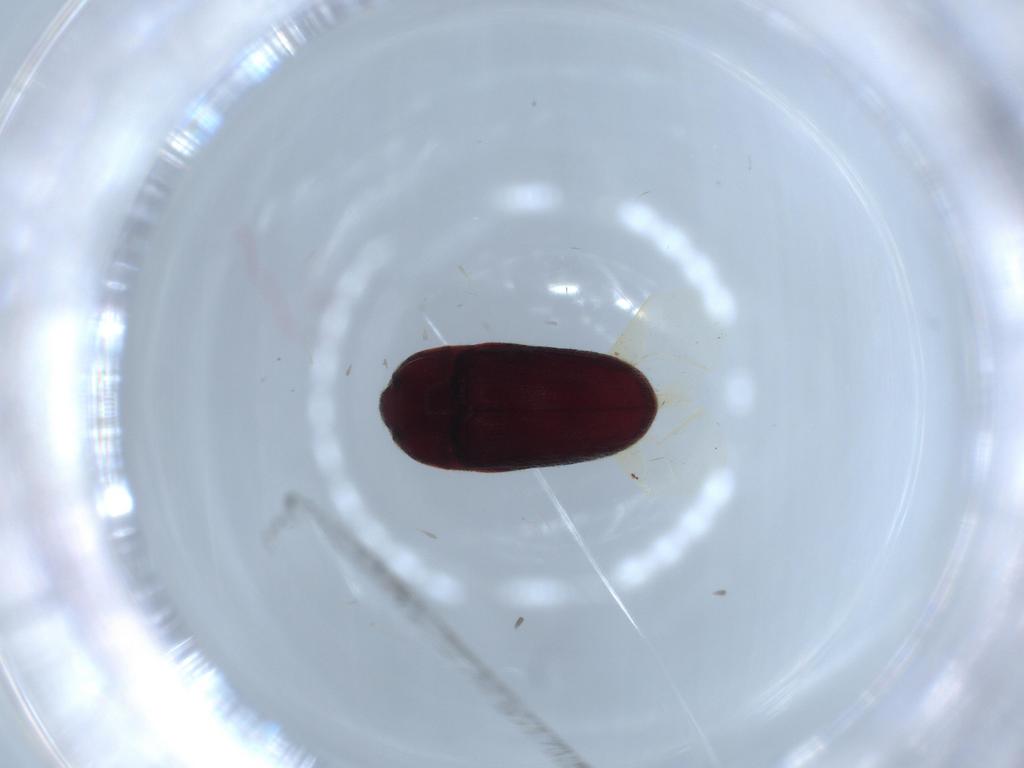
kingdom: Animalia
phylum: Arthropoda
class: Insecta
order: Coleoptera
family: Throscidae
